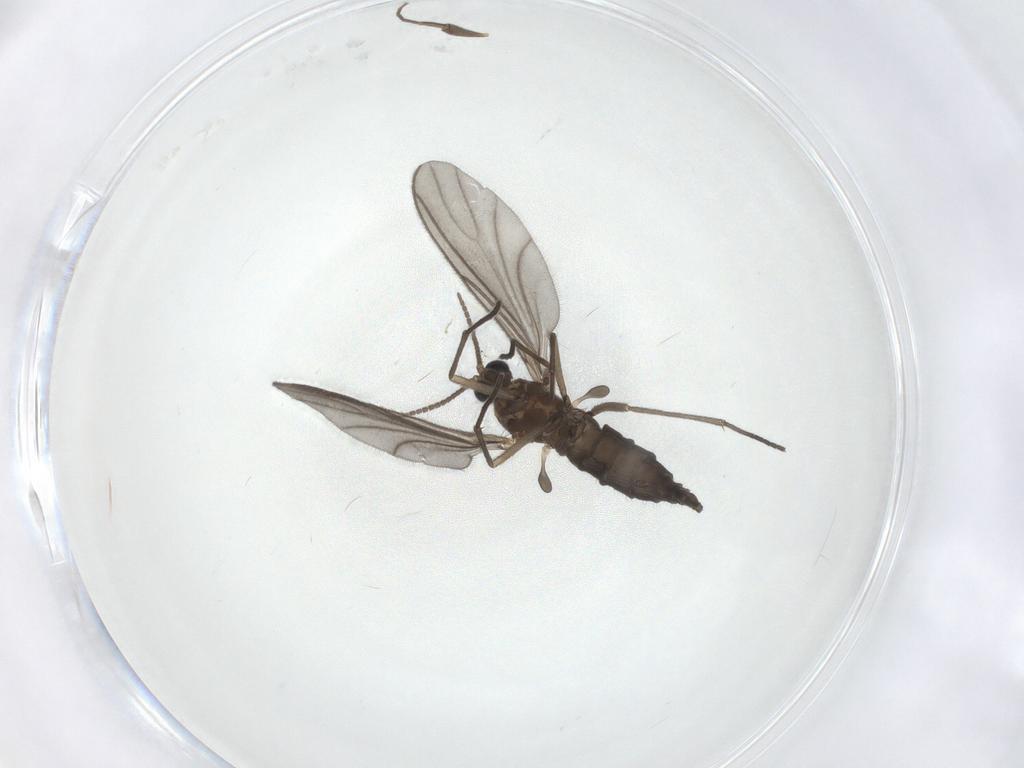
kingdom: Animalia
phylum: Arthropoda
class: Insecta
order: Diptera
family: Sciaridae
